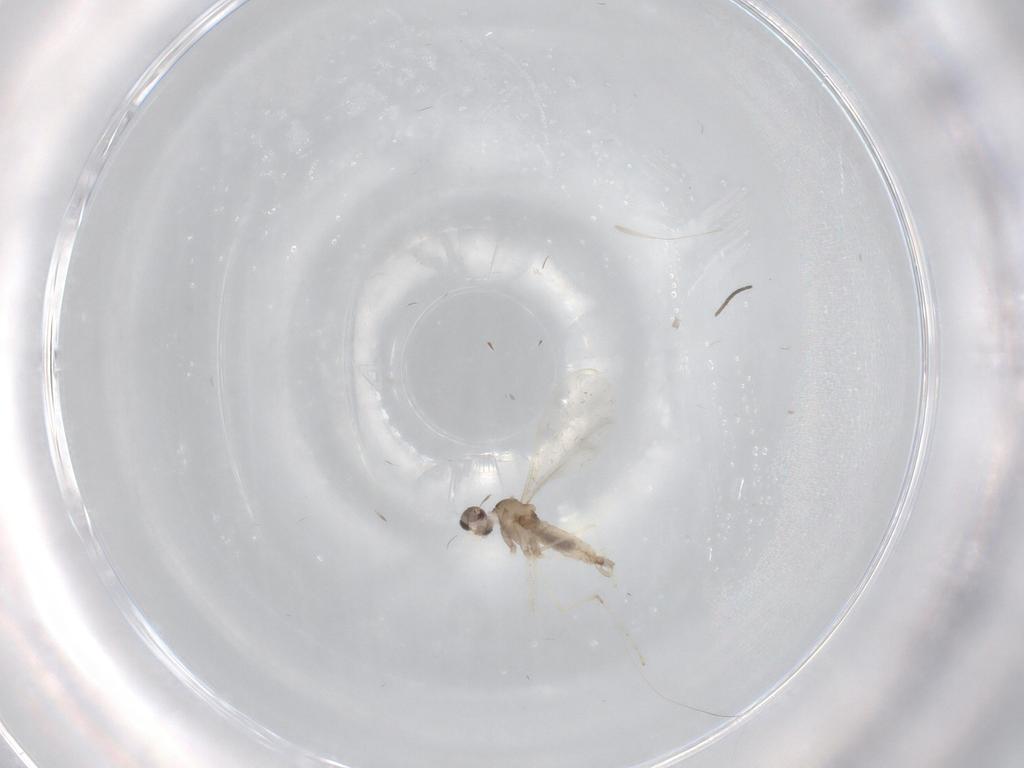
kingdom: Animalia
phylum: Arthropoda
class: Insecta
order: Diptera
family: Cecidomyiidae
